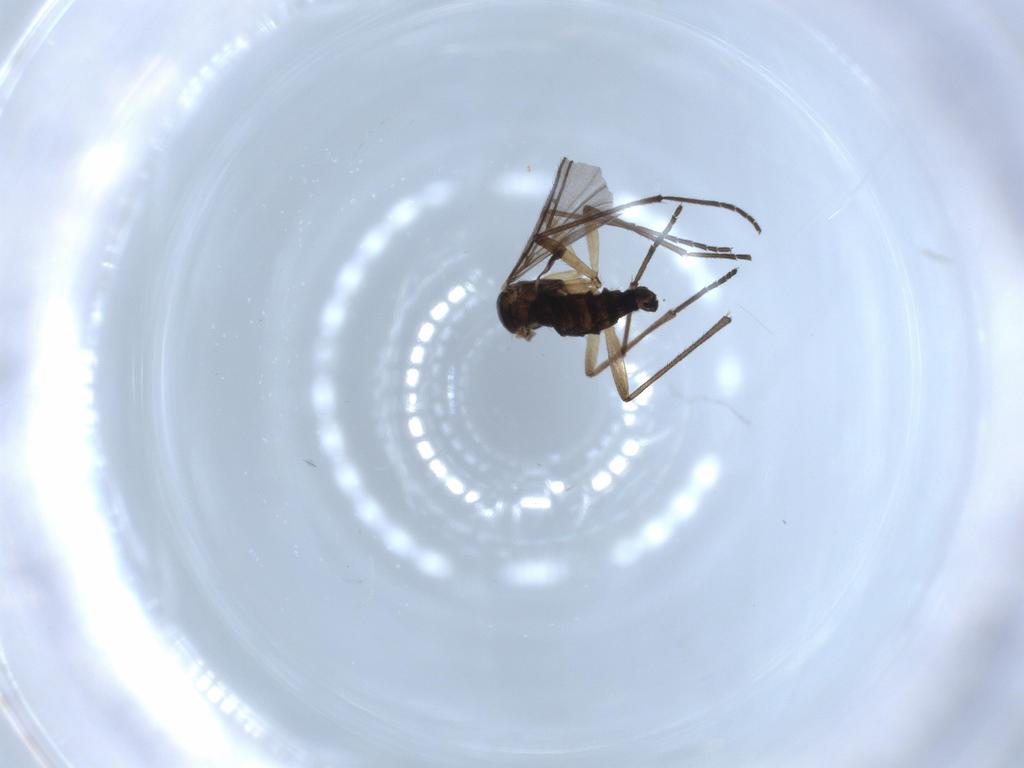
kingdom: Animalia
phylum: Arthropoda
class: Insecta
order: Diptera
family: Sciaridae
